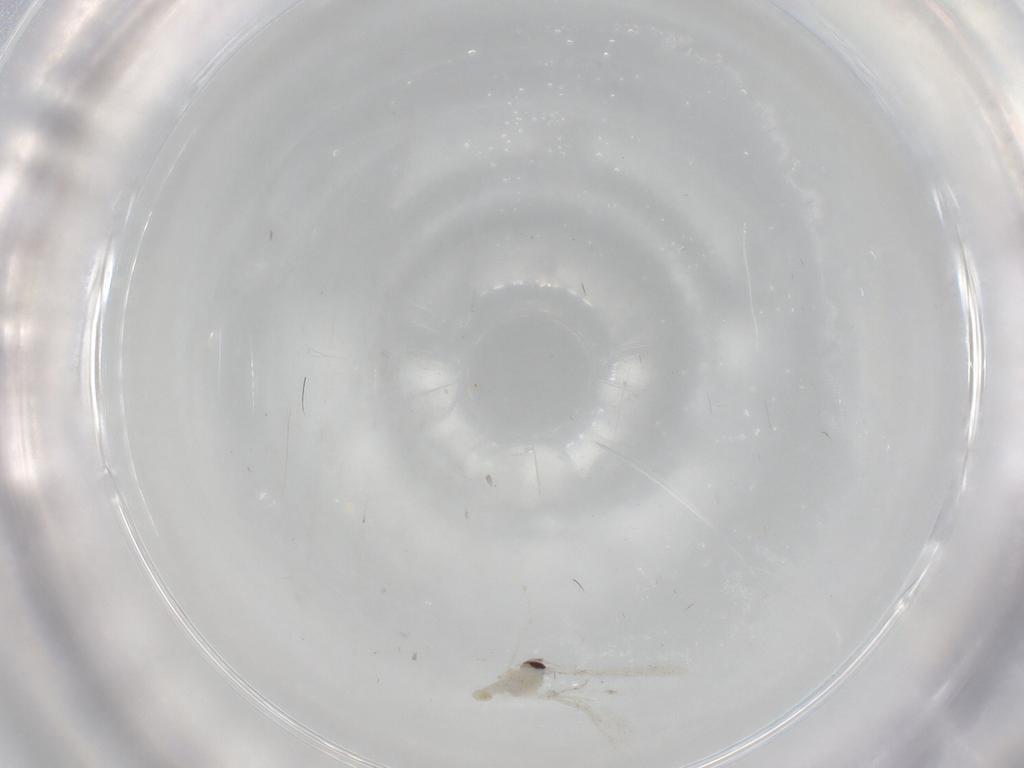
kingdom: Animalia
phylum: Arthropoda
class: Insecta
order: Diptera
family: Cecidomyiidae
